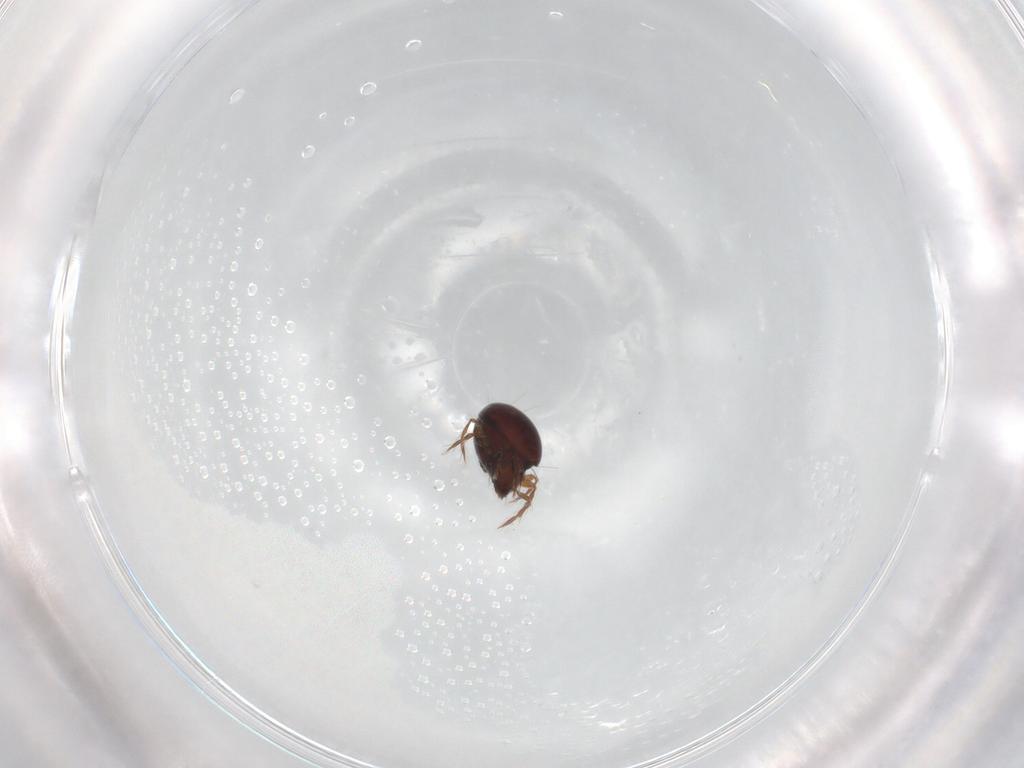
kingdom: Animalia
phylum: Arthropoda
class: Arachnida
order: Sarcoptiformes
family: Ceratoppiidae
